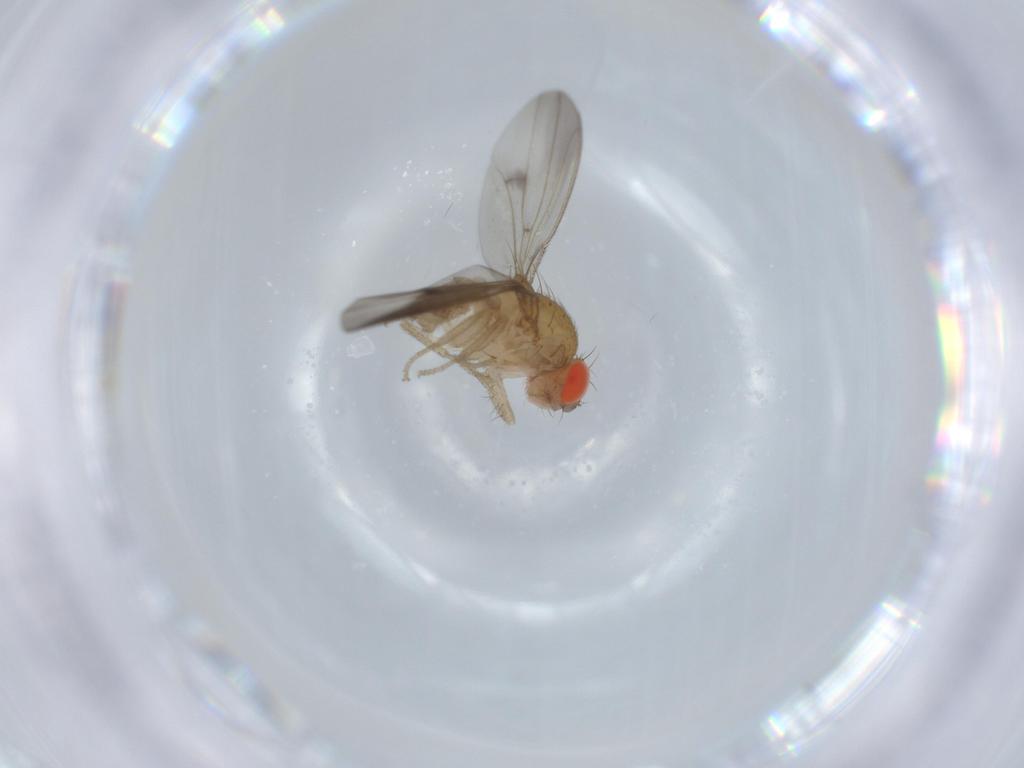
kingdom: Animalia
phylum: Arthropoda
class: Insecta
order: Diptera
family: Drosophilidae
